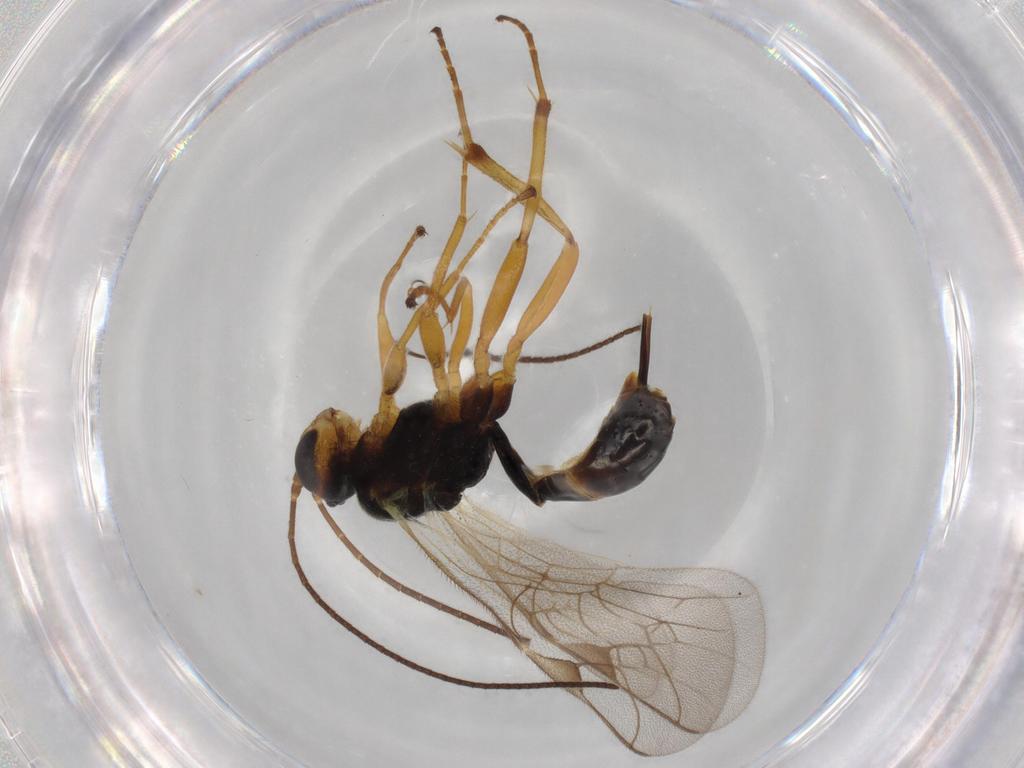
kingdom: Animalia
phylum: Arthropoda
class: Insecta
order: Hymenoptera
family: Ichneumonidae
